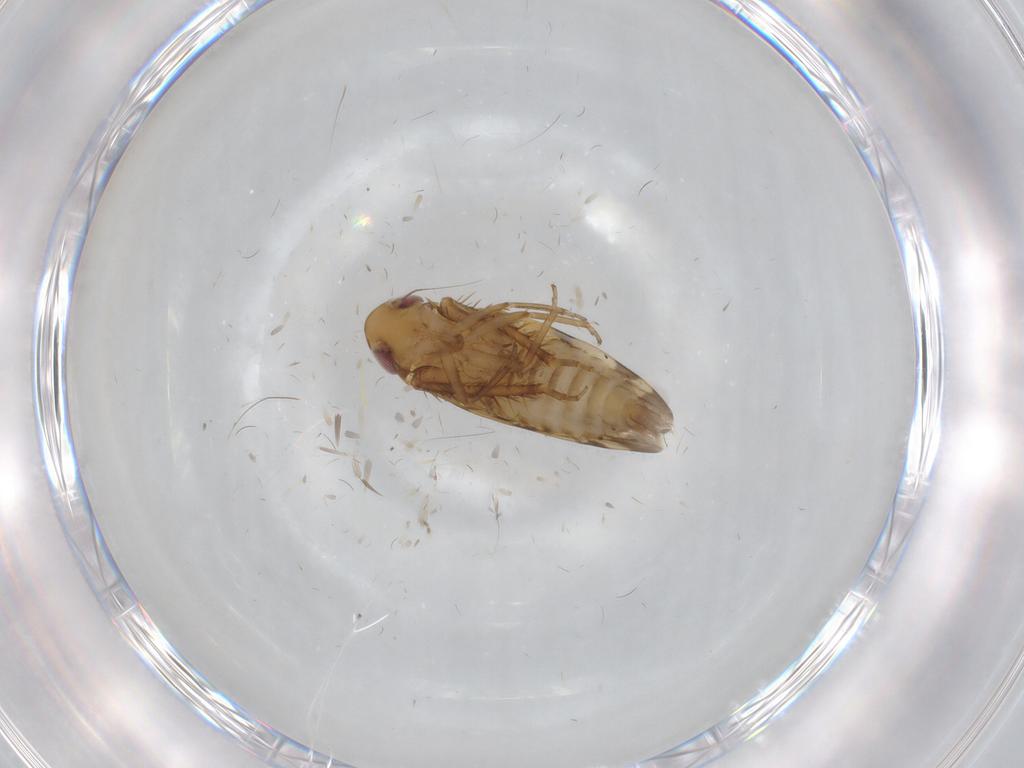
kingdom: Animalia
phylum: Arthropoda
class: Insecta
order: Hemiptera
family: Cicadellidae
